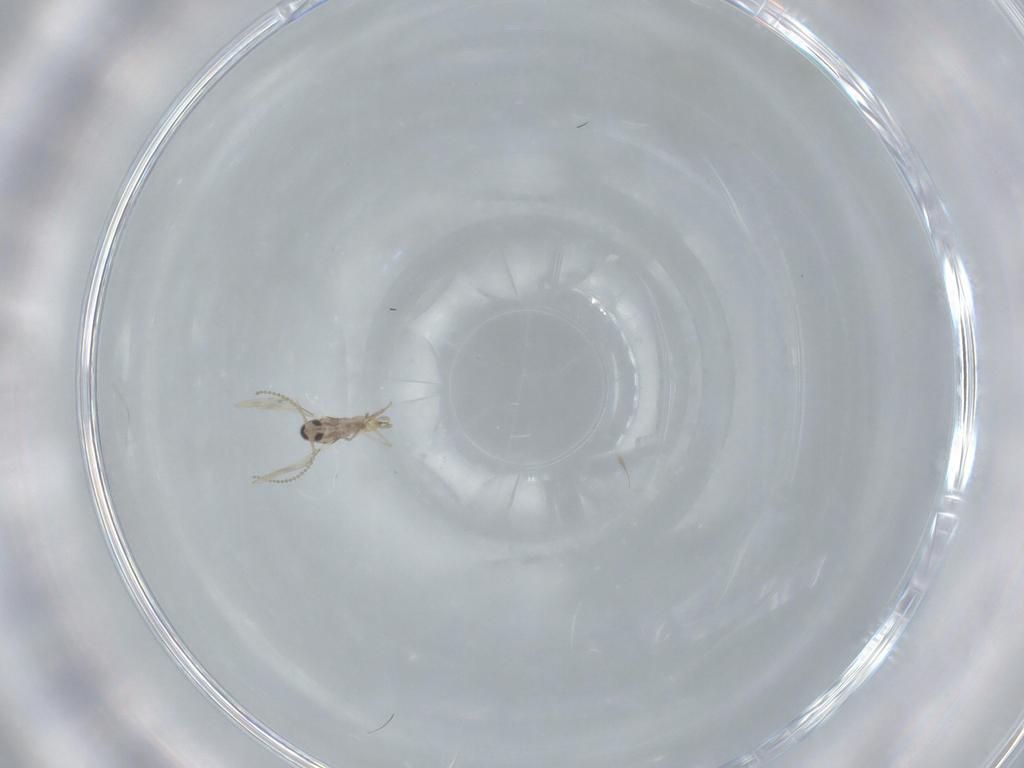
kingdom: Animalia
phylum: Arthropoda
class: Insecta
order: Diptera
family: Cecidomyiidae
